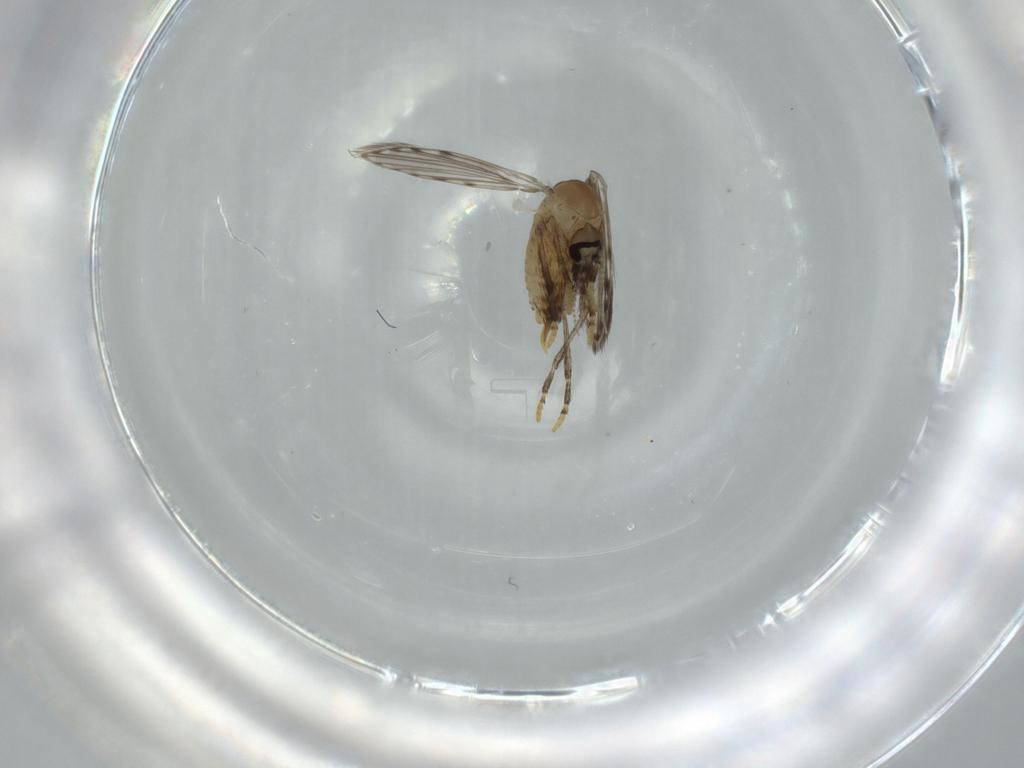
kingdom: Animalia
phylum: Arthropoda
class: Insecta
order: Diptera
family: Psychodidae
